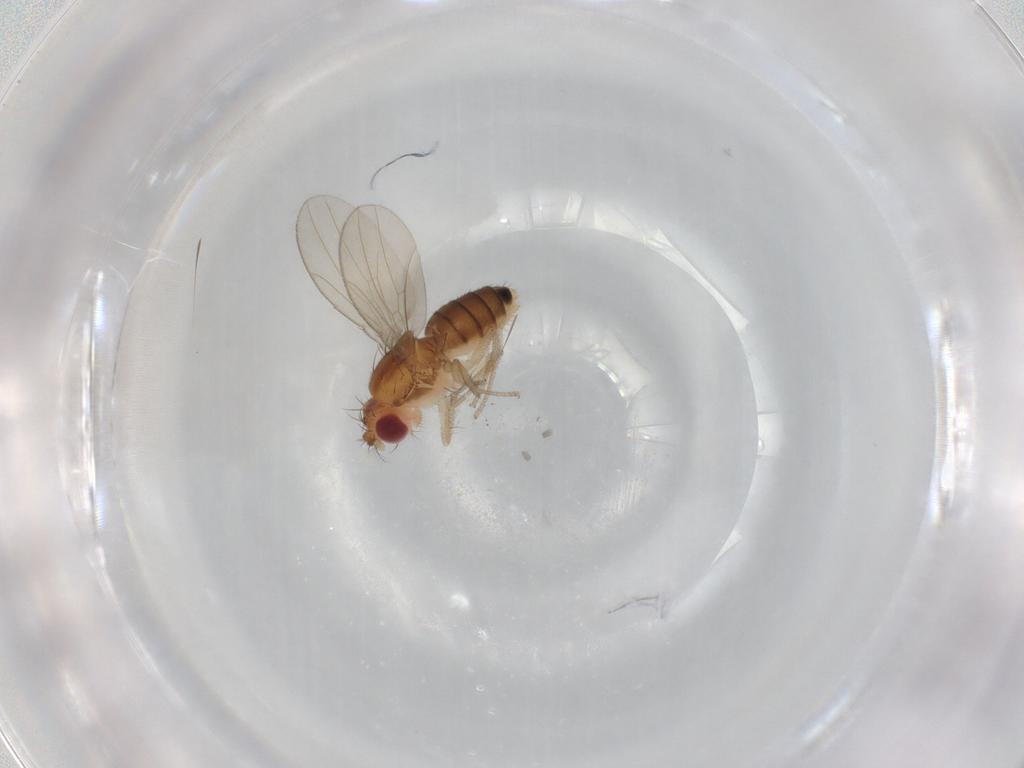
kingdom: Animalia
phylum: Arthropoda
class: Insecta
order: Diptera
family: Drosophilidae
